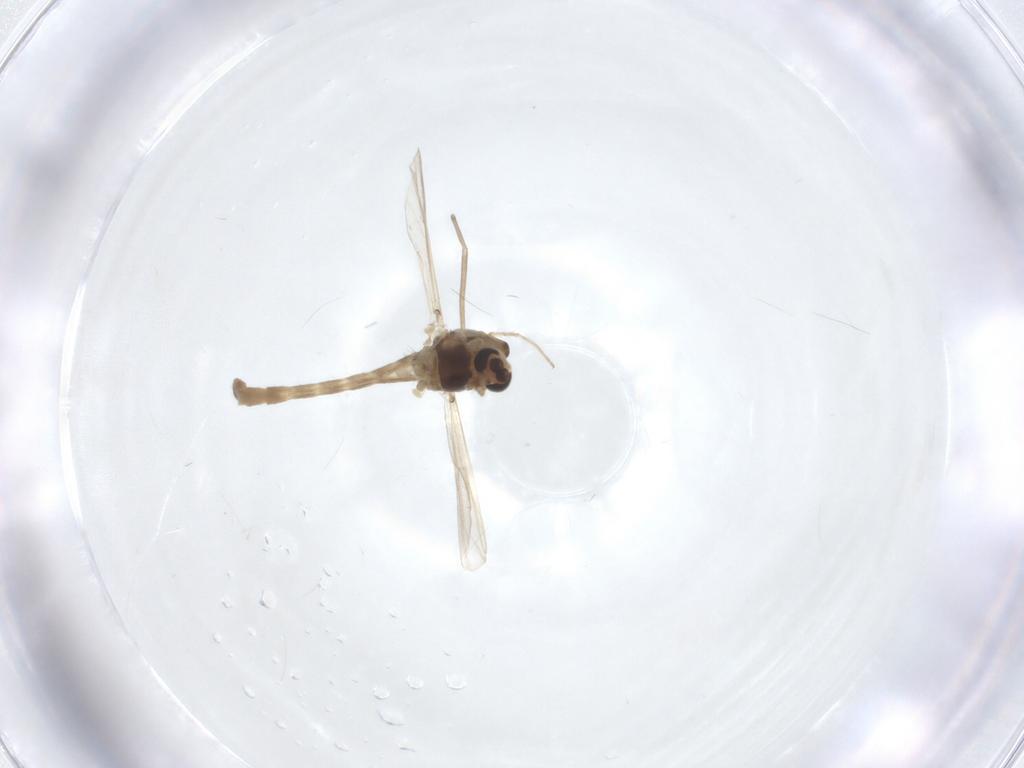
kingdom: Animalia
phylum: Arthropoda
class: Insecta
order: Diptera
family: Chironomidae
